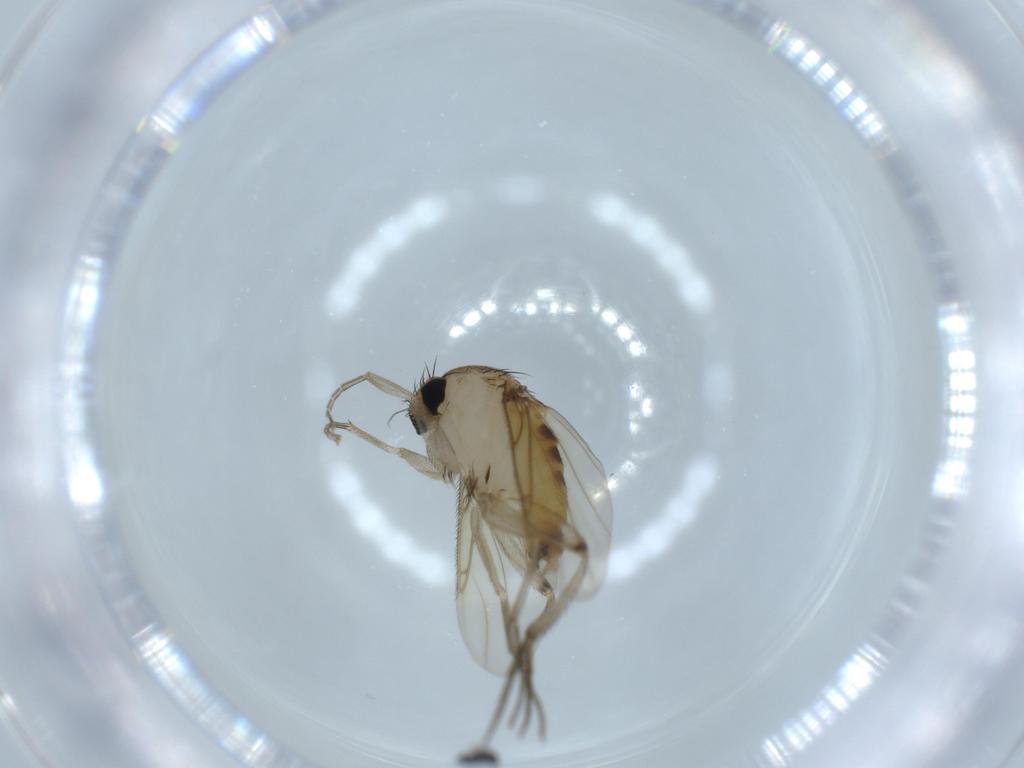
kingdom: Animalia
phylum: Arthropoda
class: Insecta
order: Diptera
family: Phoridae
